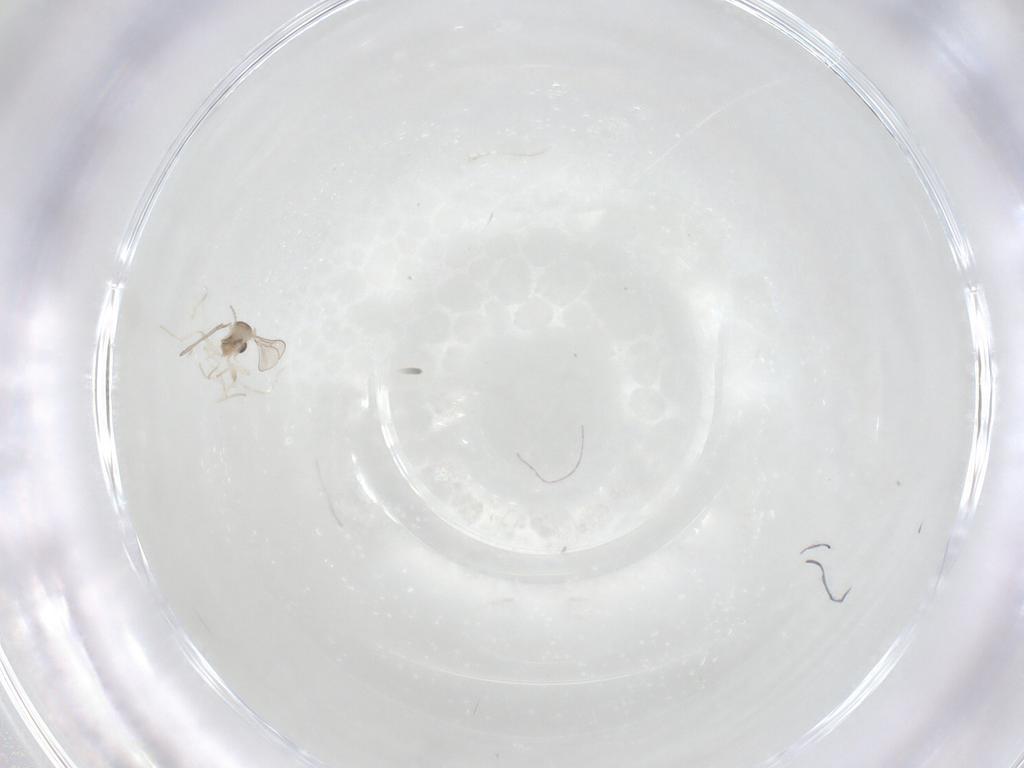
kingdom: Animalia
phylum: Arthropoda
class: Insecta
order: Diptera
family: Cecidomyiidae
